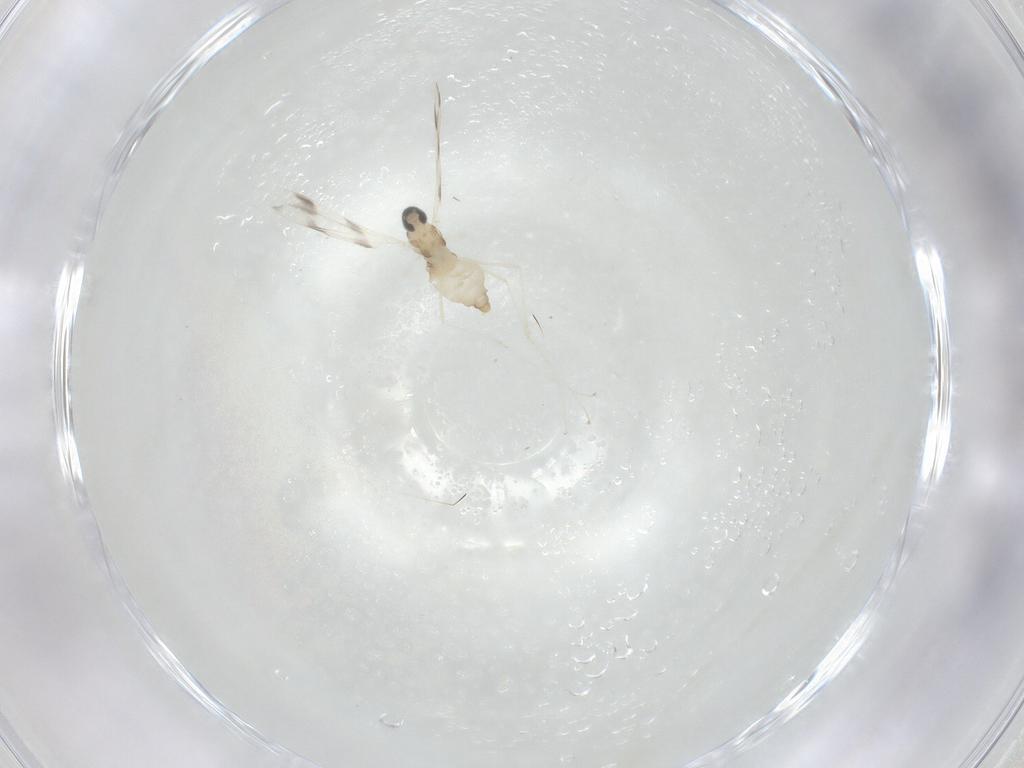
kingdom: Animalia
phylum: Arthropoda
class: Insecta
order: Diptera
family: Cecidomyiidae
